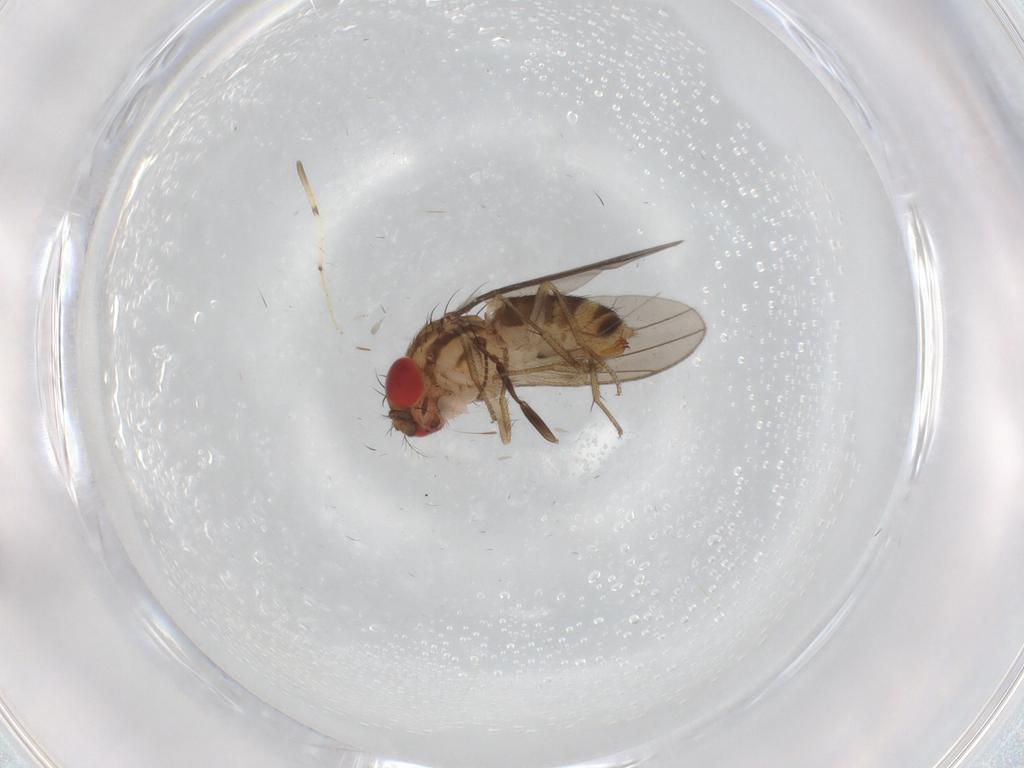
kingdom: Animalia
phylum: Arthropoda
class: Insecta
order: Diptera
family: Drosophilidae
